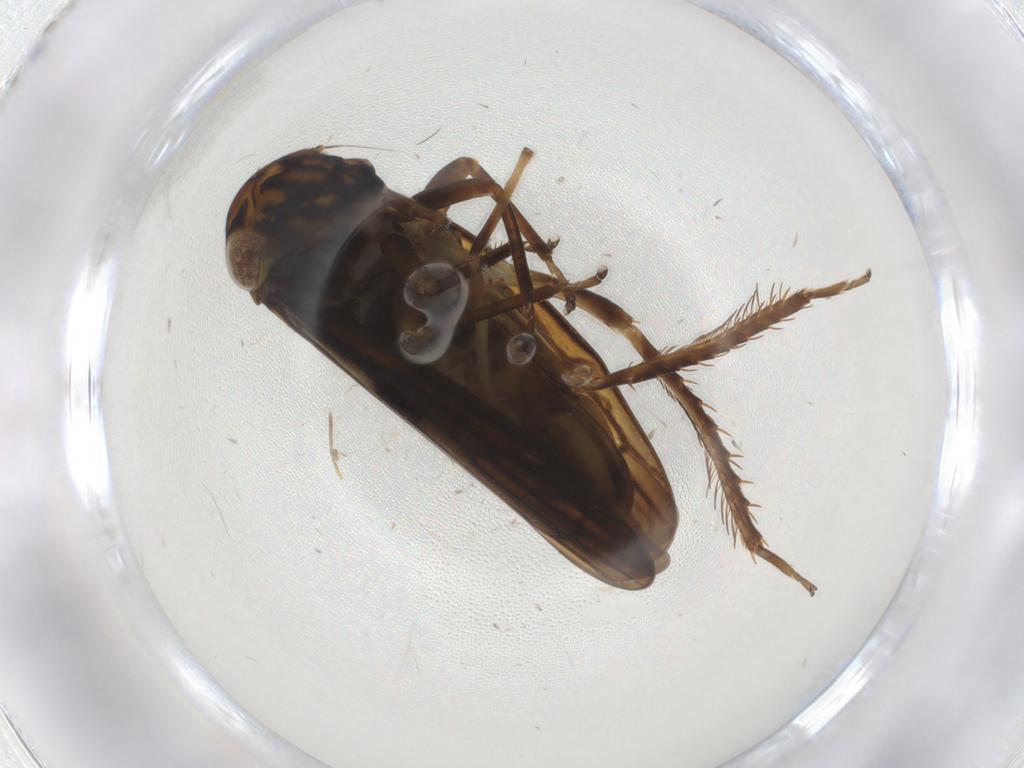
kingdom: Animalia
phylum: Arthropoda
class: Insecta
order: Hemiptera
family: Cicadellidae
